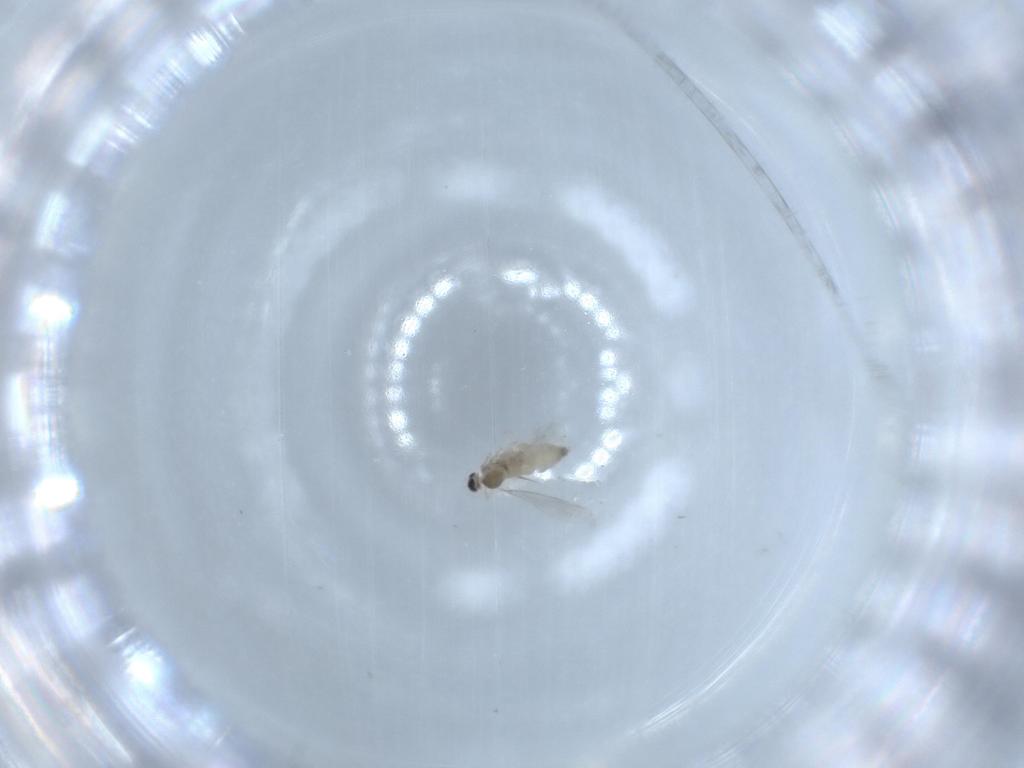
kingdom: Animalia
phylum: Arthropoda
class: Insecta
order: Diptera
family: Cecidomyiidae
